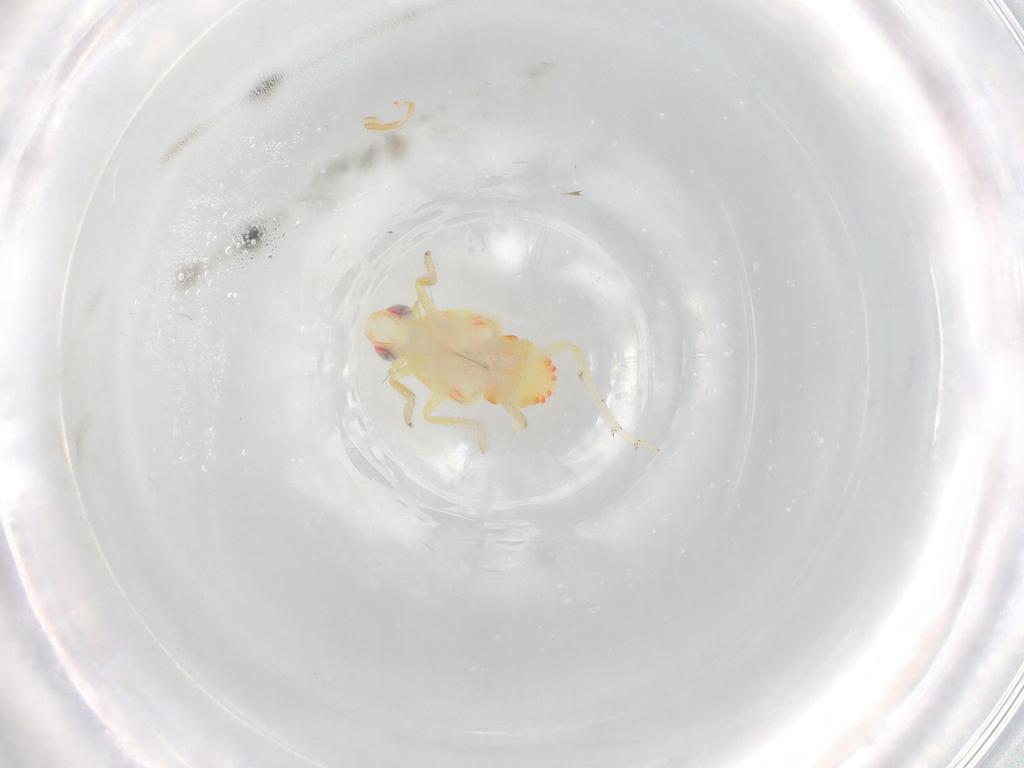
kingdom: Animalia
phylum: Arthropoda
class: Insecta
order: Hemiptera
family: Tropiduchidae
